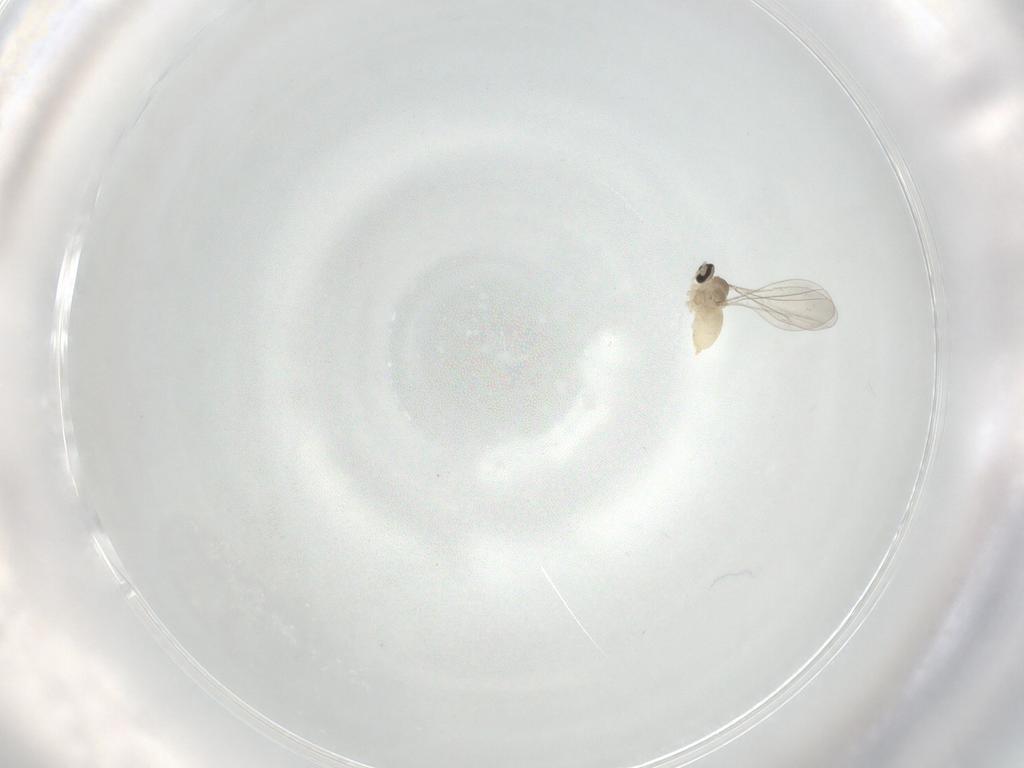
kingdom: Animalia
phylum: Arthropoda
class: Insecta
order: Diptera
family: Cecidomyiidae
